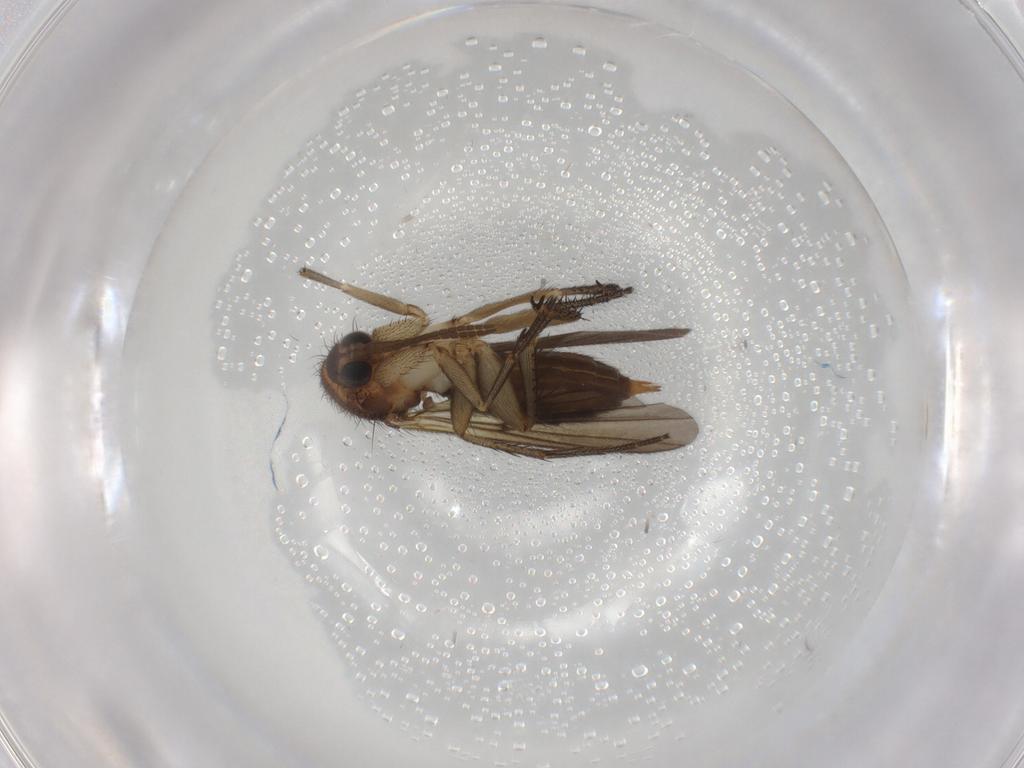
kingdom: Animalia
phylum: Arthropoda
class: Insecta
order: Diptera
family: Mycetophilidae
